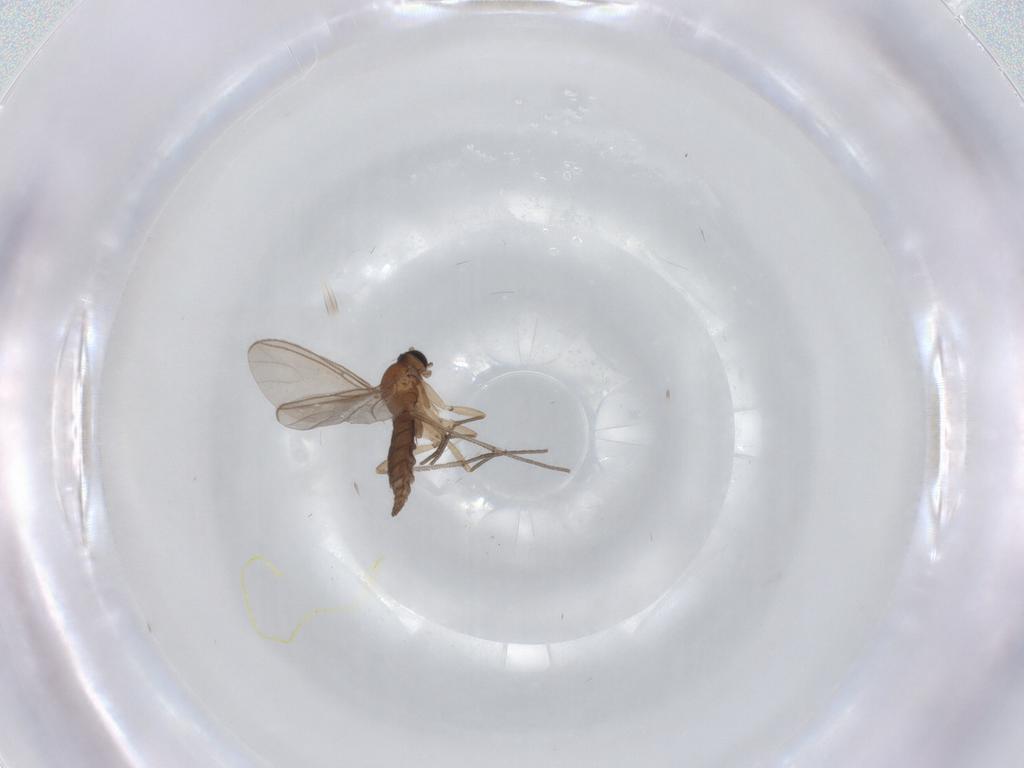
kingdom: Animalia
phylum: Arthropoda
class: Insecta
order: Diptera
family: Sciaridae
